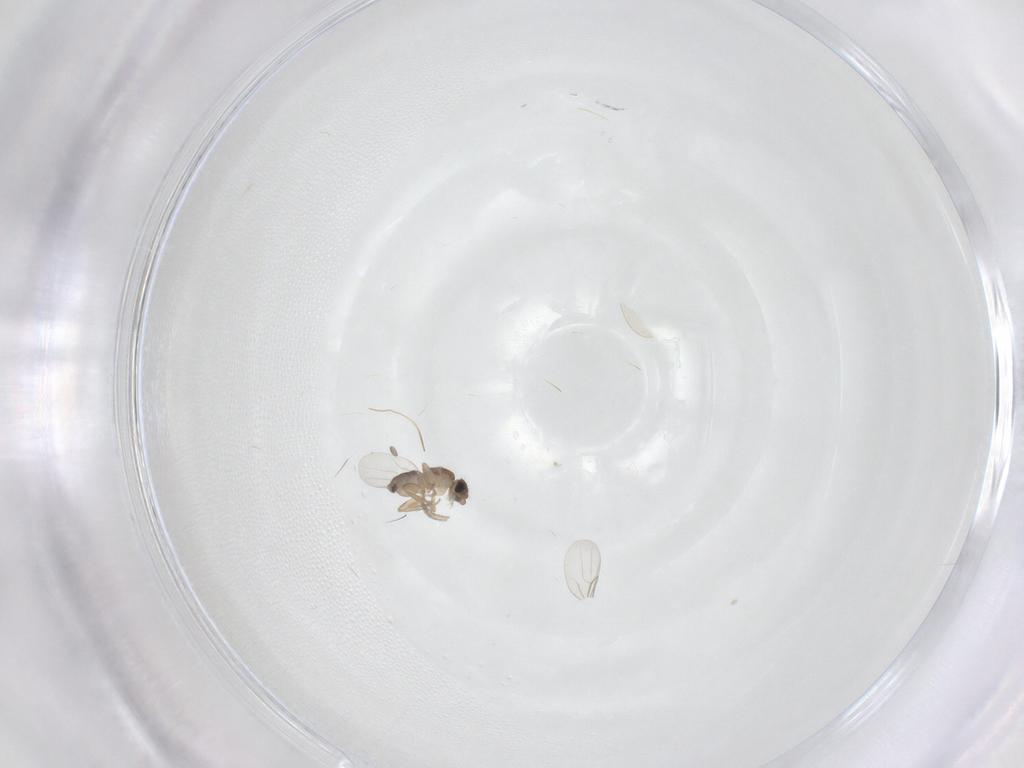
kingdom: Animalia
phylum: Arthropoda
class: Insecta
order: Diptera
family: Phoridae
